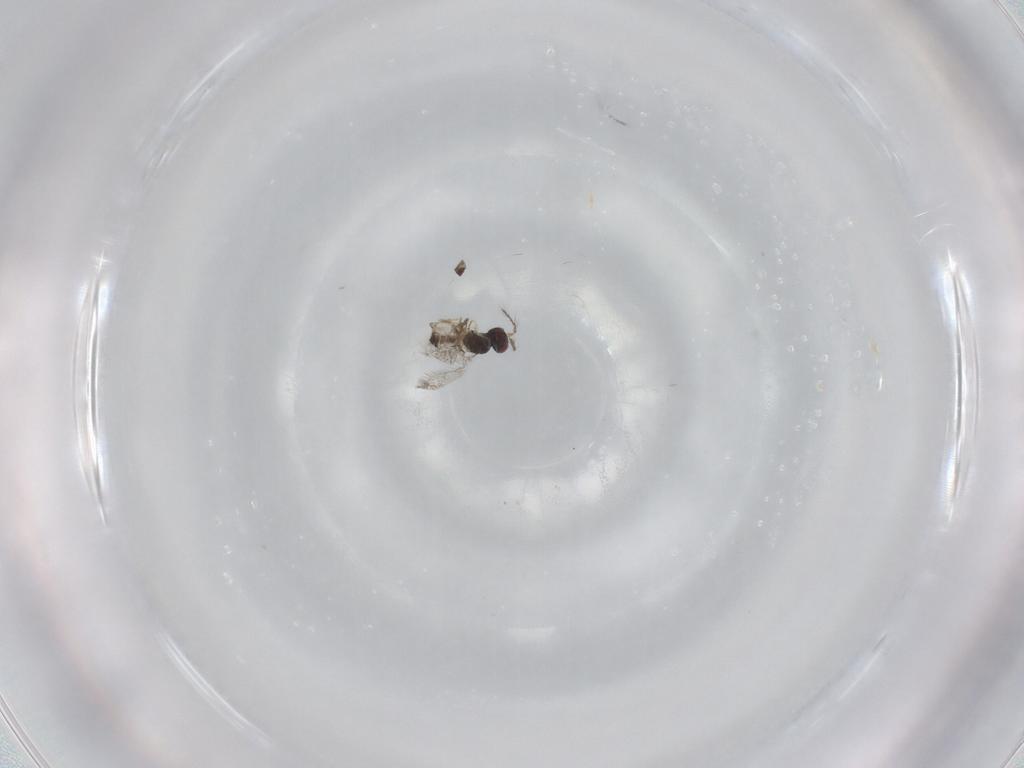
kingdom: Animalia
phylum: Arthropoda
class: Insecta
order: Hymenoptera
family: Eulophidae
